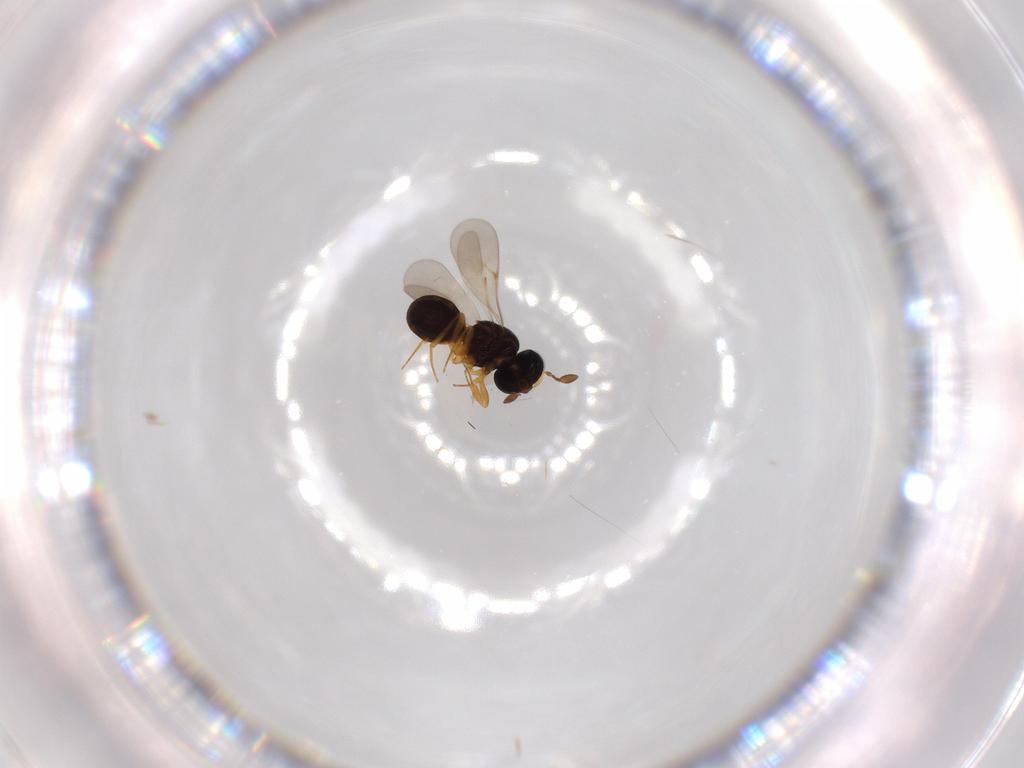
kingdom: Animalia
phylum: Arthropoda
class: Insecta
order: Hymenoptera
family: Scelionidae
